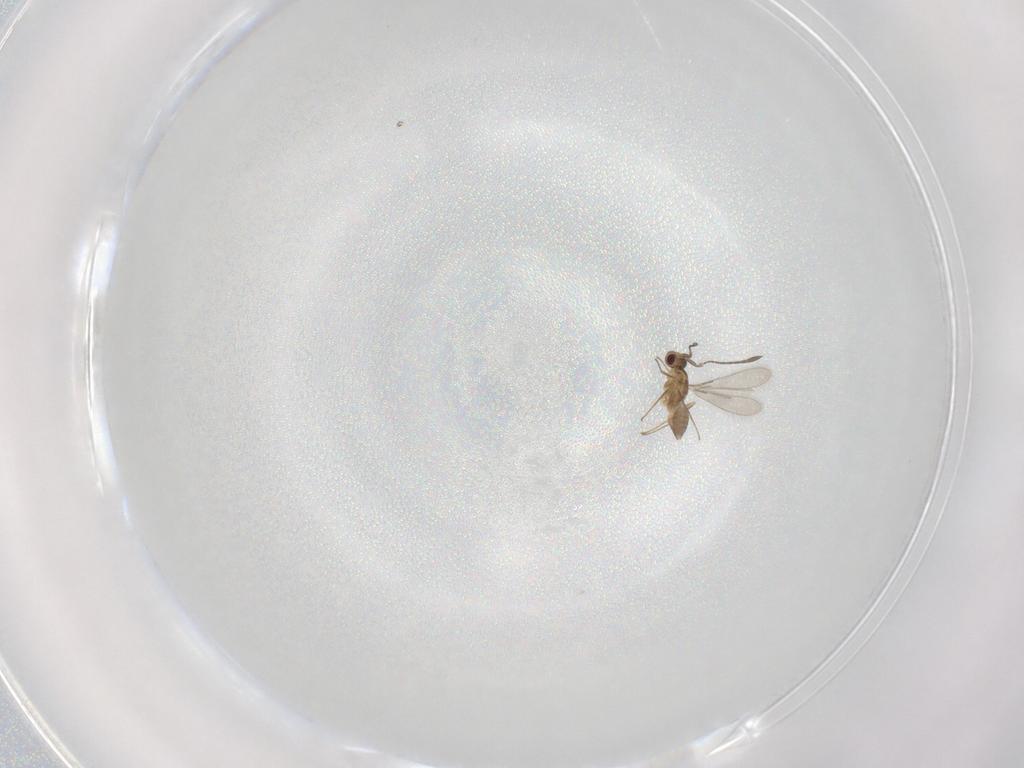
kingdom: Animalia
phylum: Arthropoda
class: Insecta
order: Hymenoptera
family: Mymaridae
